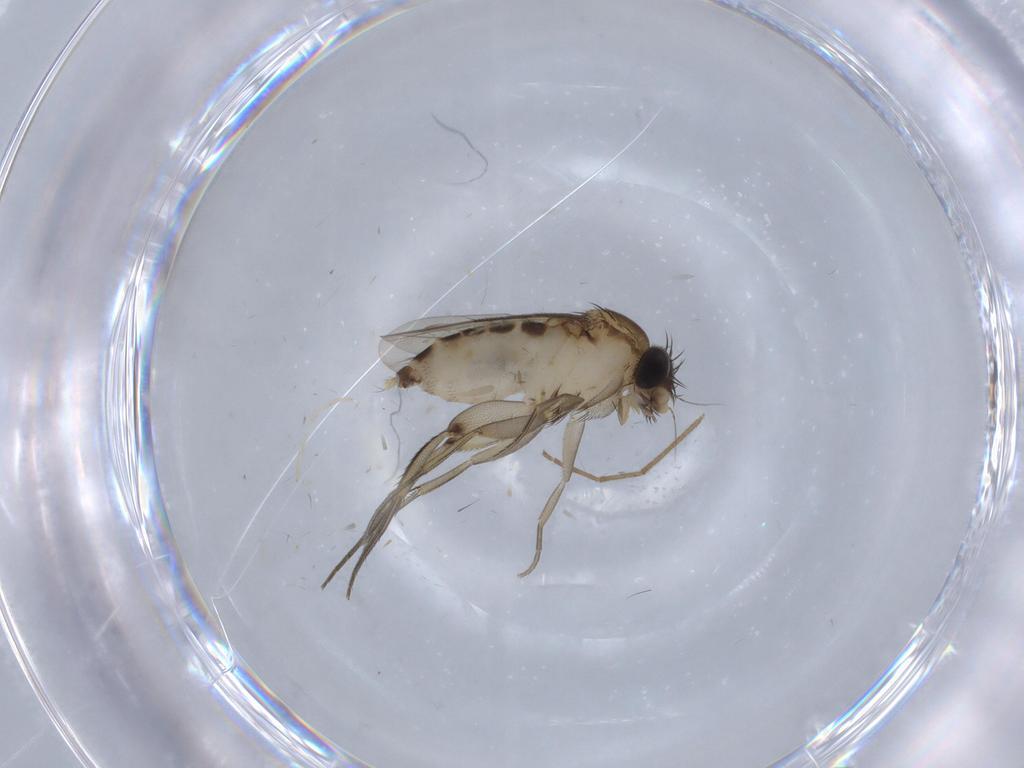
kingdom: Animalia
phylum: Arthropoda
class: Insecta
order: Diptera
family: Phoridae
